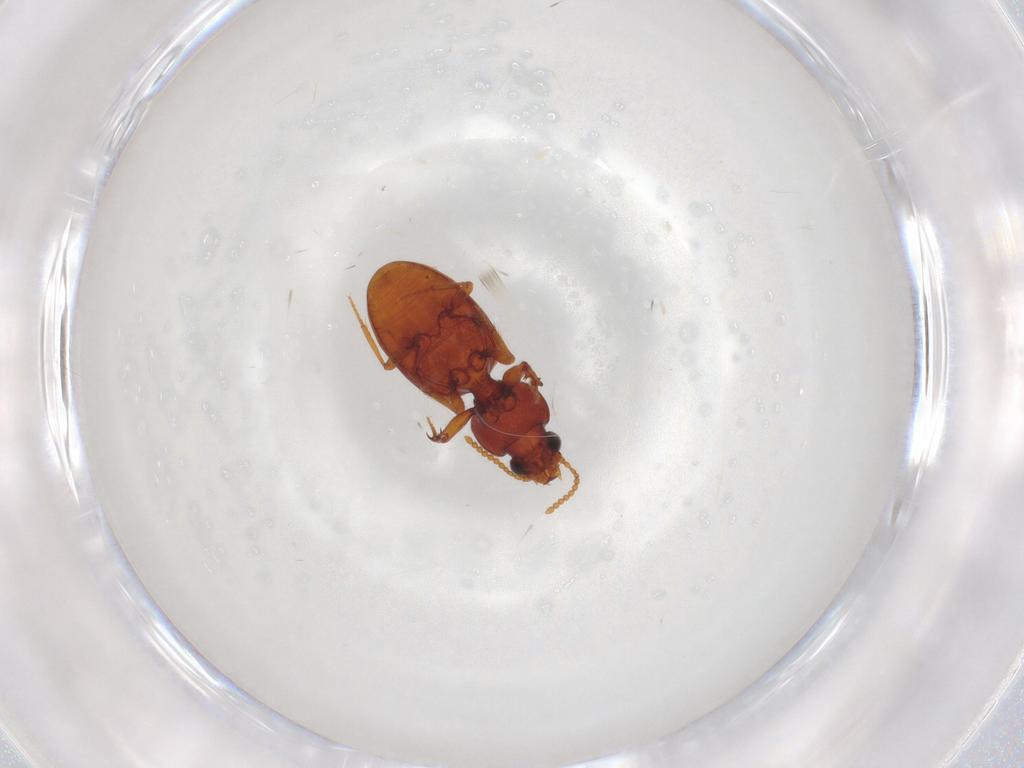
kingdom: Animalia
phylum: Arthropoda
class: Insecta
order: Coleoptera
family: Carabidae
